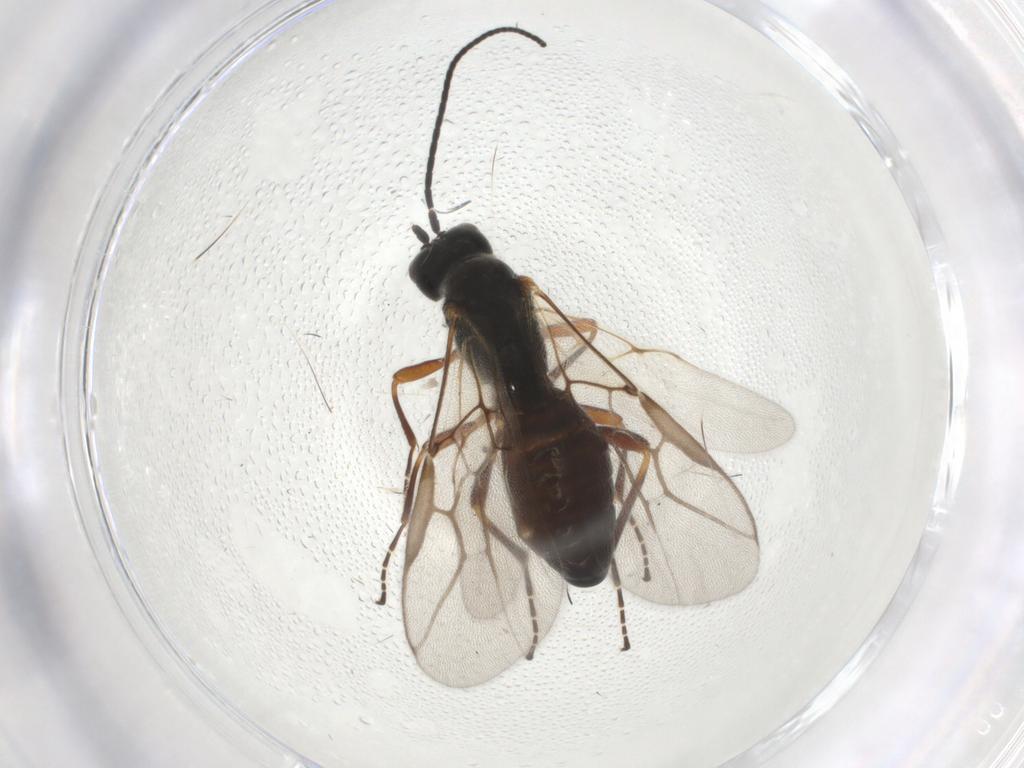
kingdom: Animalia
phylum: Arthropoda
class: Insecta
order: Hymenoptera
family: Braconidae
